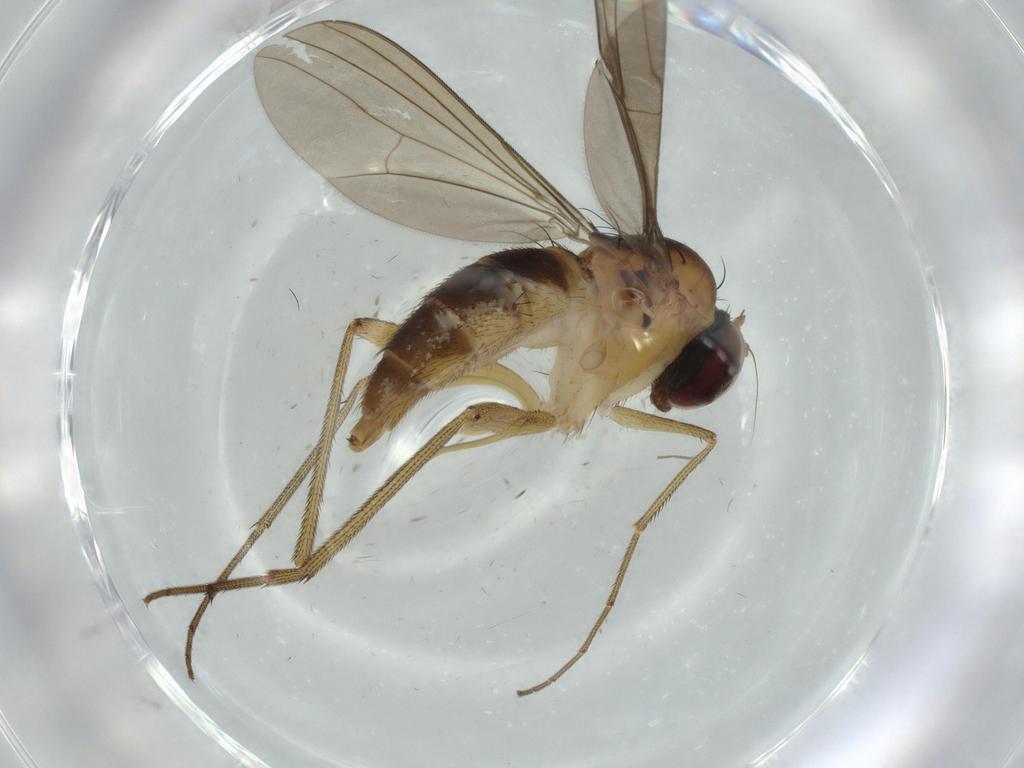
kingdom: Animalia
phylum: Arthropoda
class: Insecta
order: Diptera
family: Dolichopodidae
